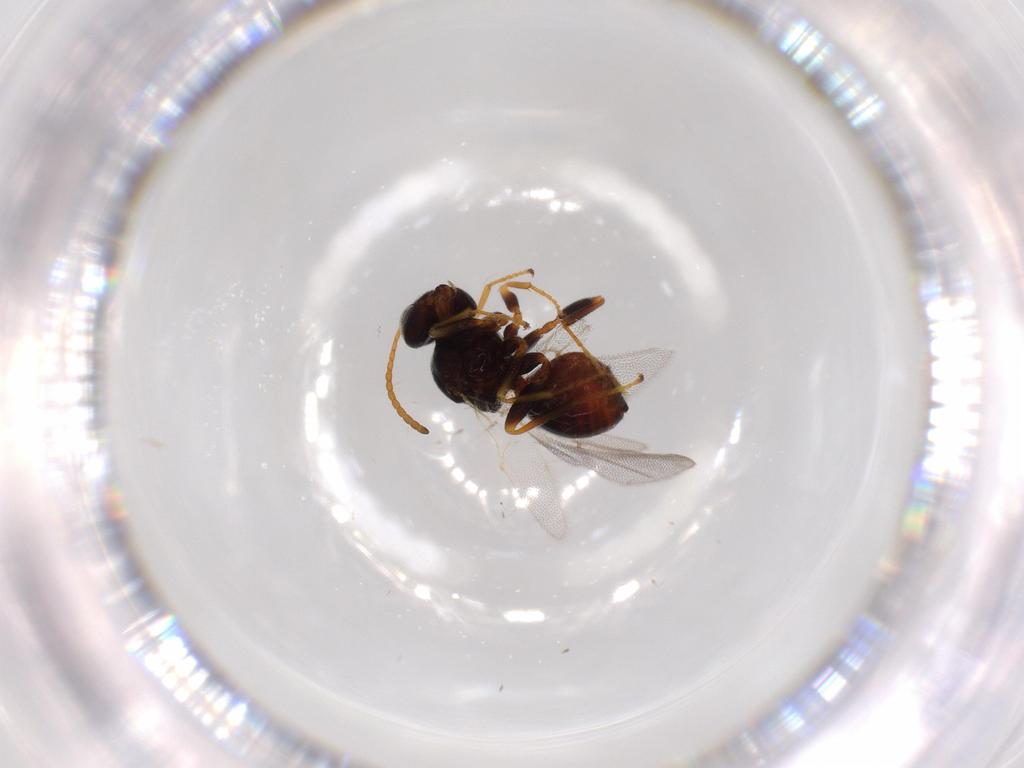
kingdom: Animalia
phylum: Arthropoda
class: Insecta
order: Hymenoptera
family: Cynipidae
